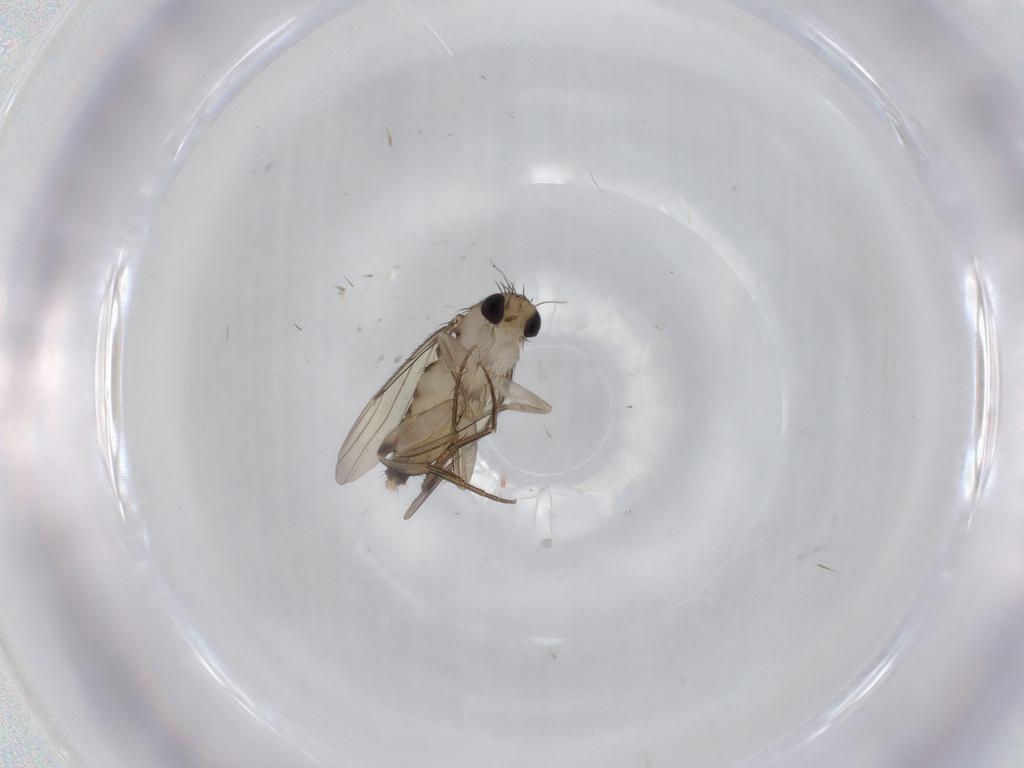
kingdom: Animalia
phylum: Arthropoda
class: Insecta
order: Diptera
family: Phoridae
